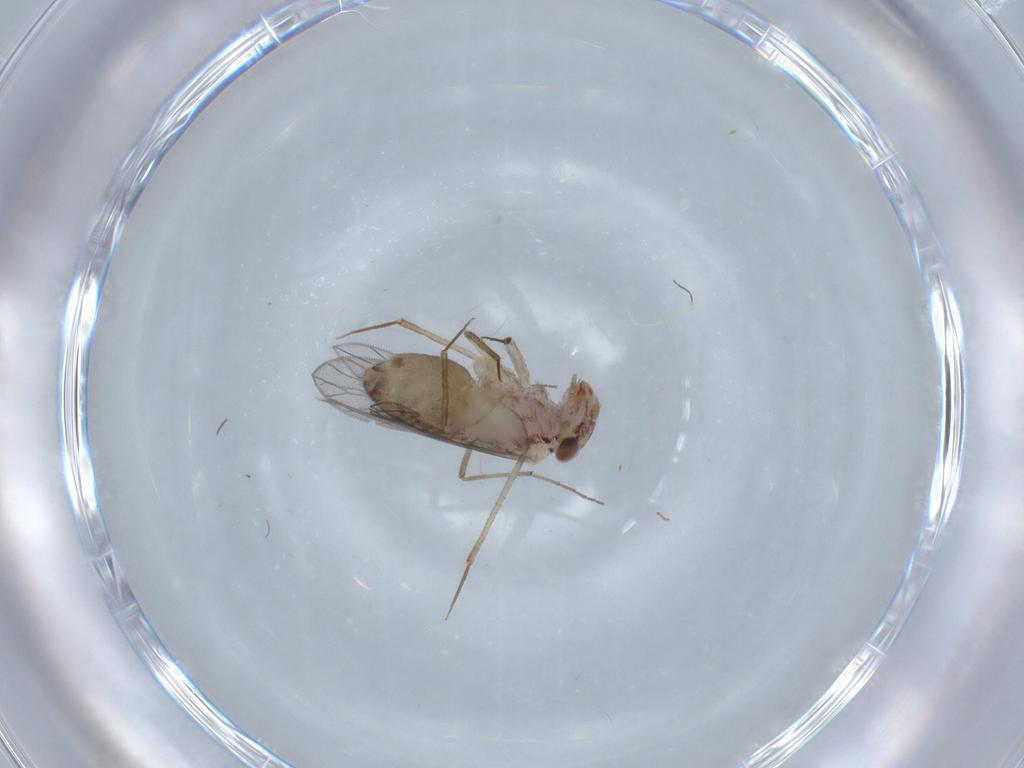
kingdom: Animalia
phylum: Arthropoda
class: Insecta
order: Psocodea
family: Lepidopsocidae
